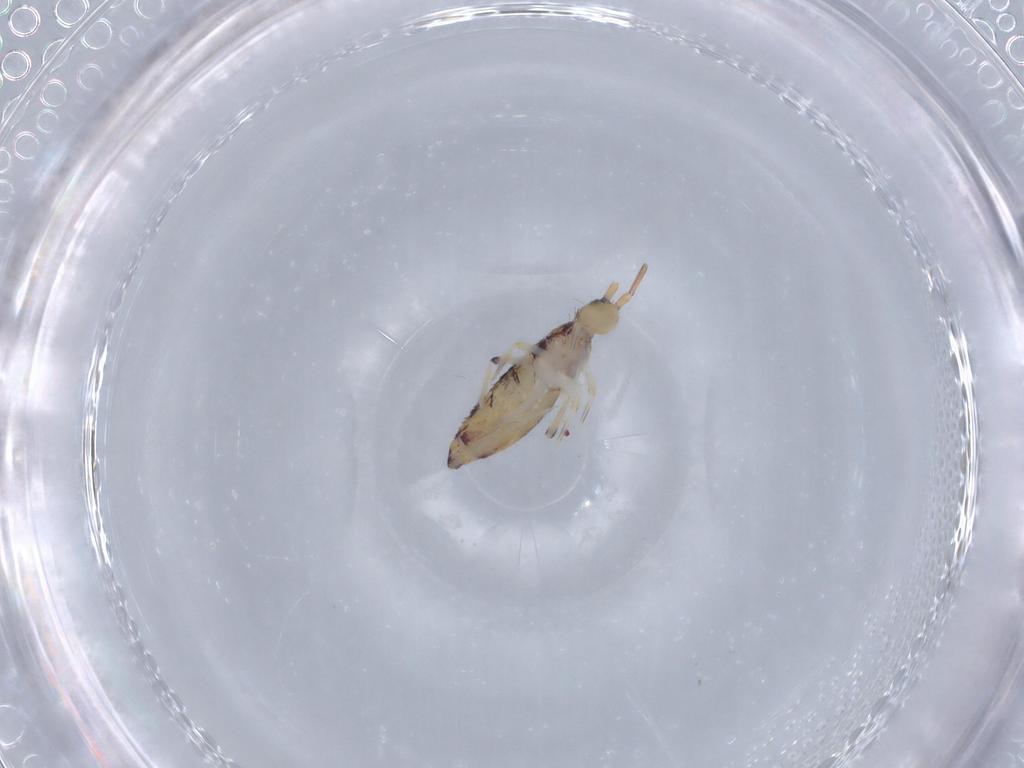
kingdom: Animalia
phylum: Arthropoda
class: Collembola
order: Entomobryomorpha
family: Entomobryidae
